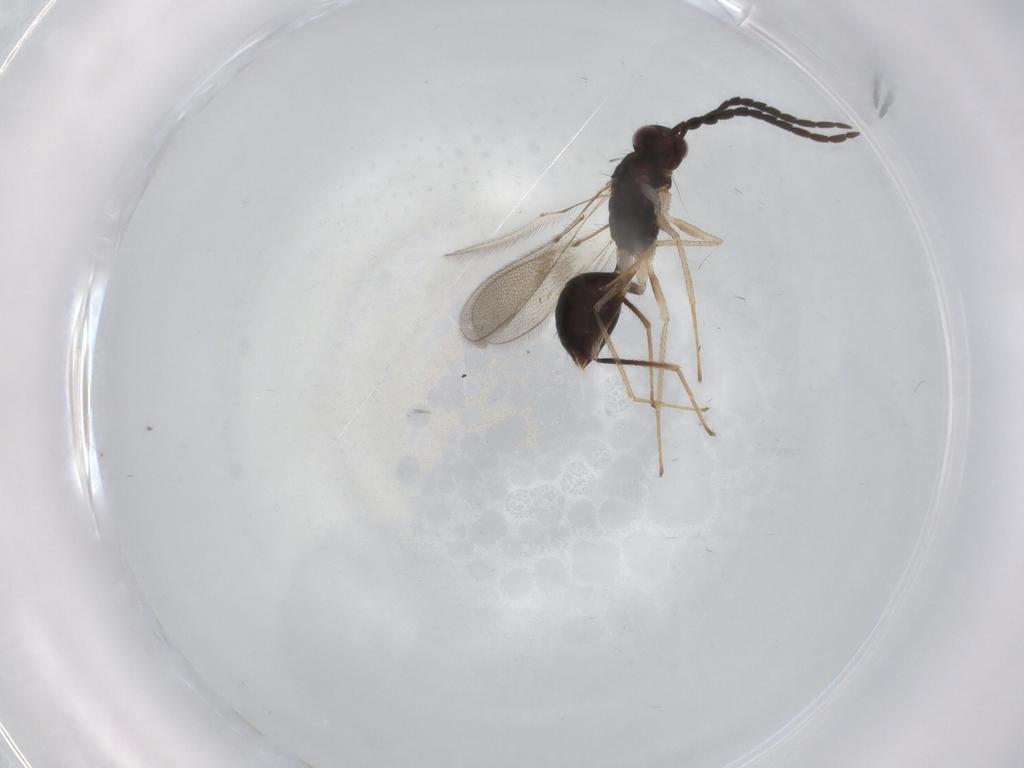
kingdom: Animalia
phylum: Arthropoda
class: Insecta
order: Hymenoptera
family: Mymaridae
